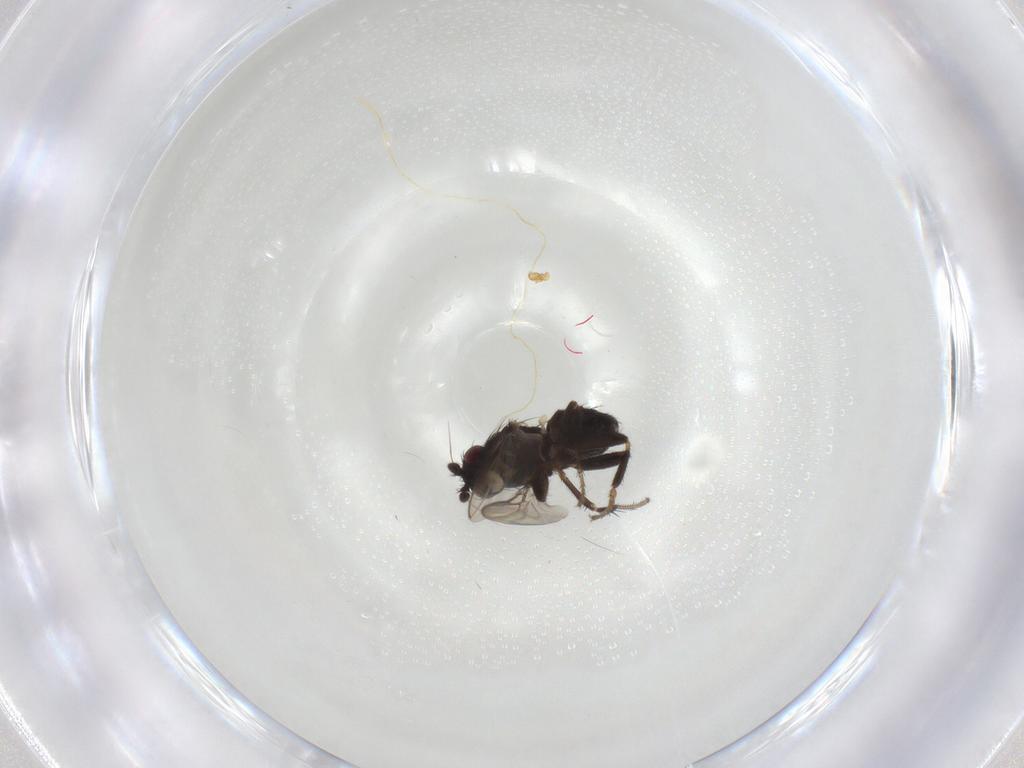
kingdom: Animalia
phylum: Arthropoda
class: Insecta
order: Diptera
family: Sphaeroceridae
